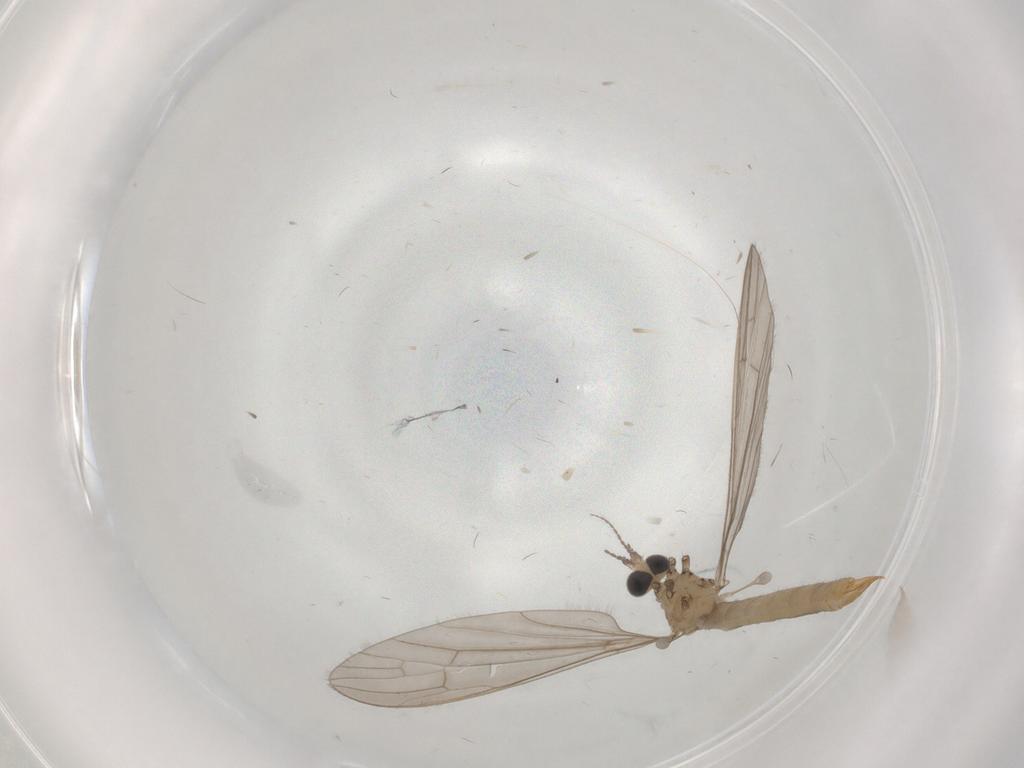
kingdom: Animalia
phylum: Arthropoda
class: Insecta
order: Diptera
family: Limoniidae
